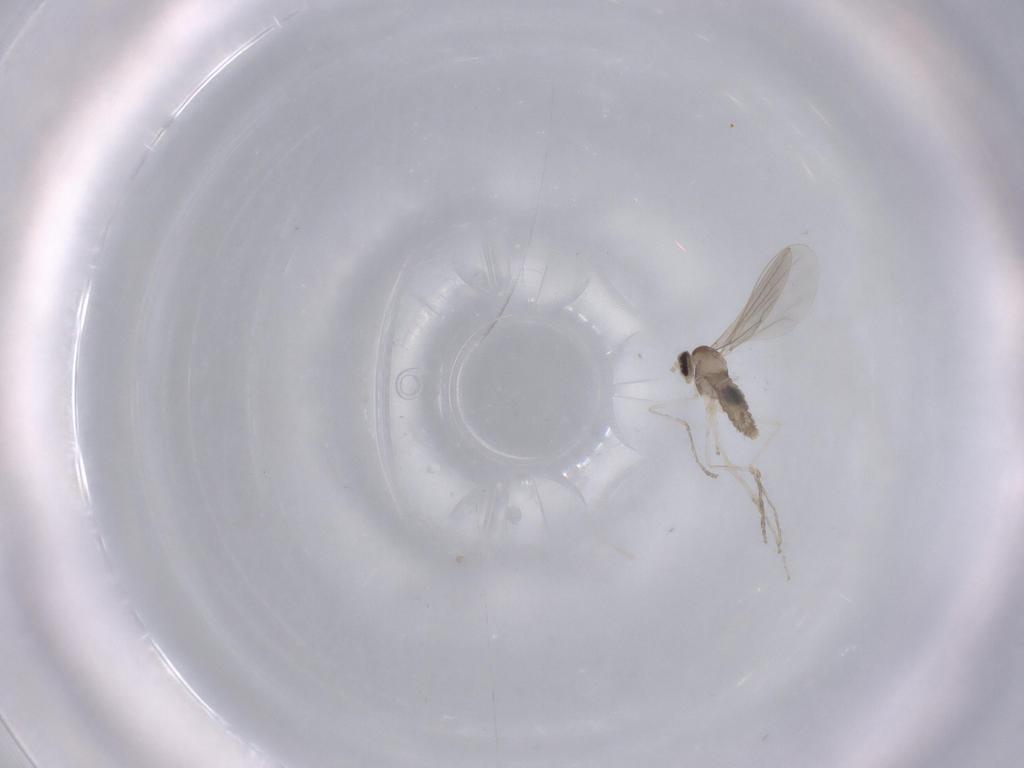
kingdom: Animalia
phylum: Arthropoda
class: Insecta
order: Diptera
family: Cecidomyiidae
